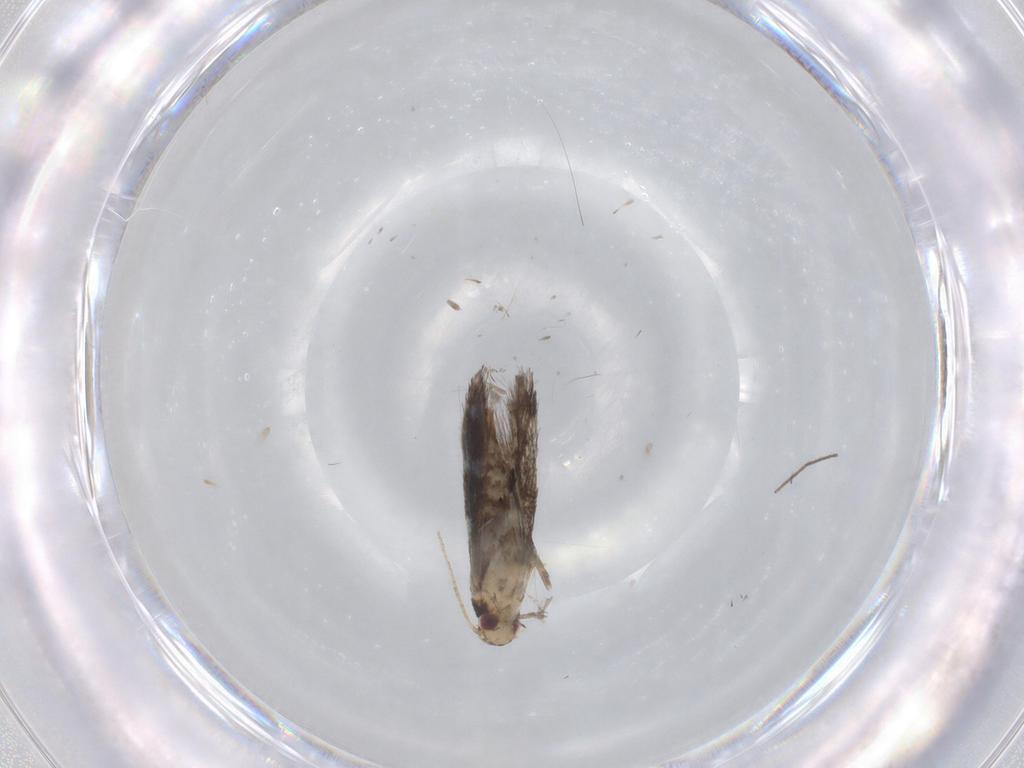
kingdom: Animalia
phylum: Arthropoda
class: Insecta
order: Lepidoptera
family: Gracillariidae
